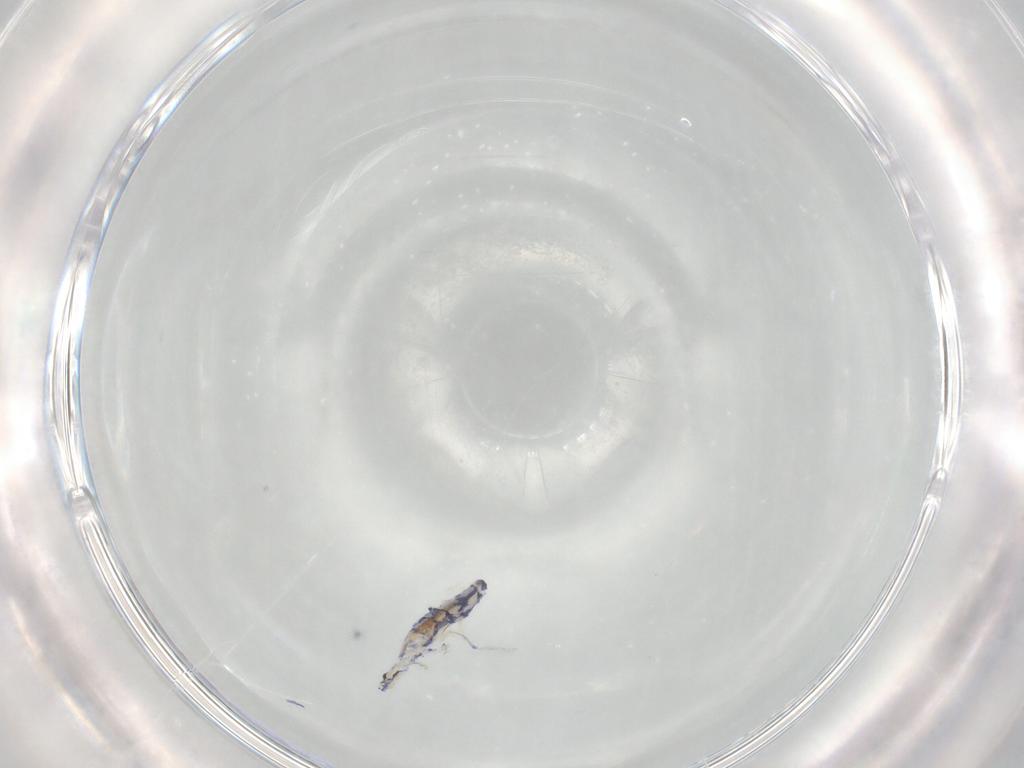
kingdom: Animalia
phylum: Arthropoda
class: Collembola
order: Entomobryomorpha
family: Entomobryidae
